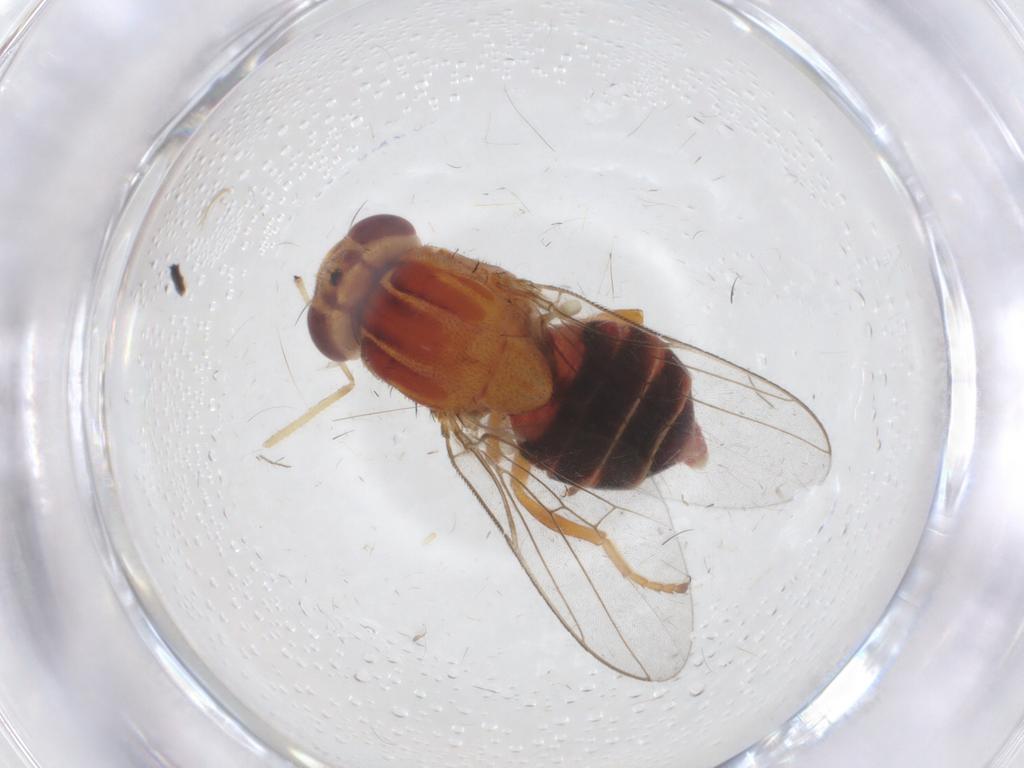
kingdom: Animalia
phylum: Arthropoda
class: Insecta
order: Diptera
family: Chloropidae
